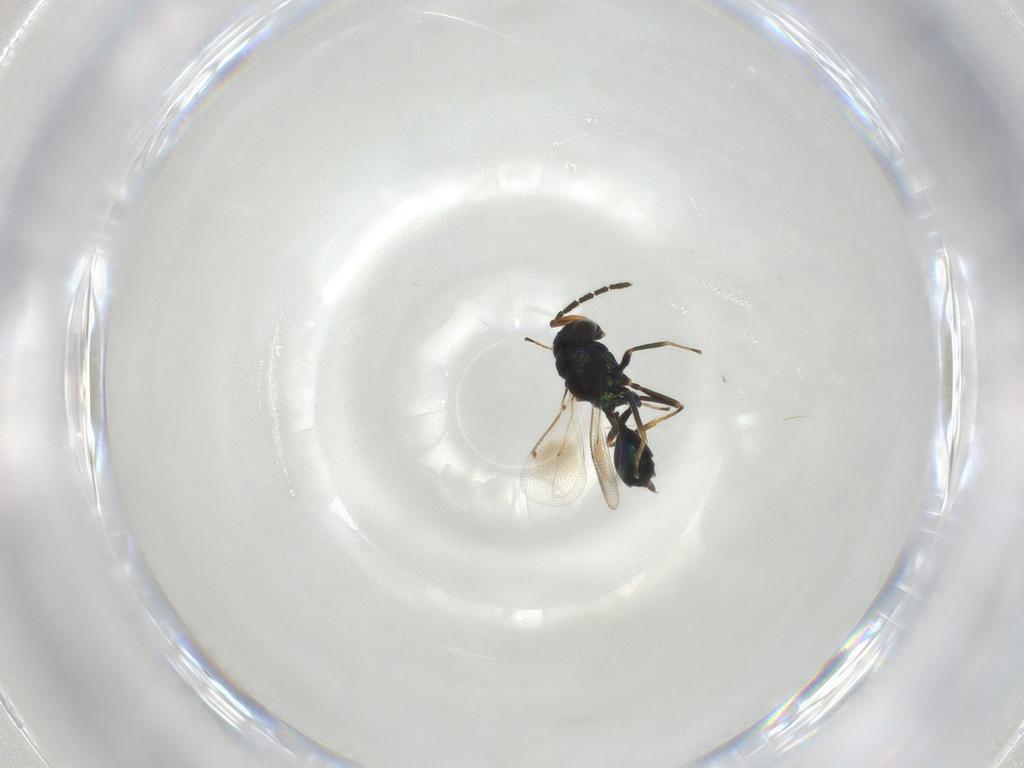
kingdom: Animalia
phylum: Arthropoda
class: Insecta
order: Hymenoptera
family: Eulophidae
